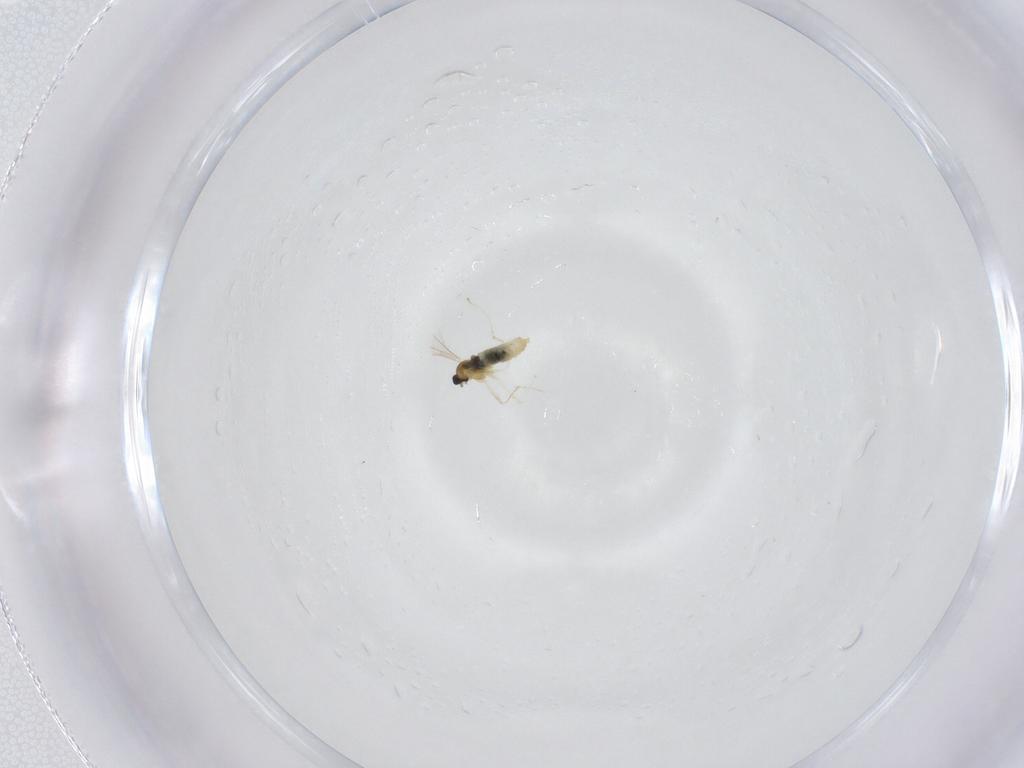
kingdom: Animalia
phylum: Arthropoda
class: Insecta
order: Diptera
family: Cecidomyiidae
